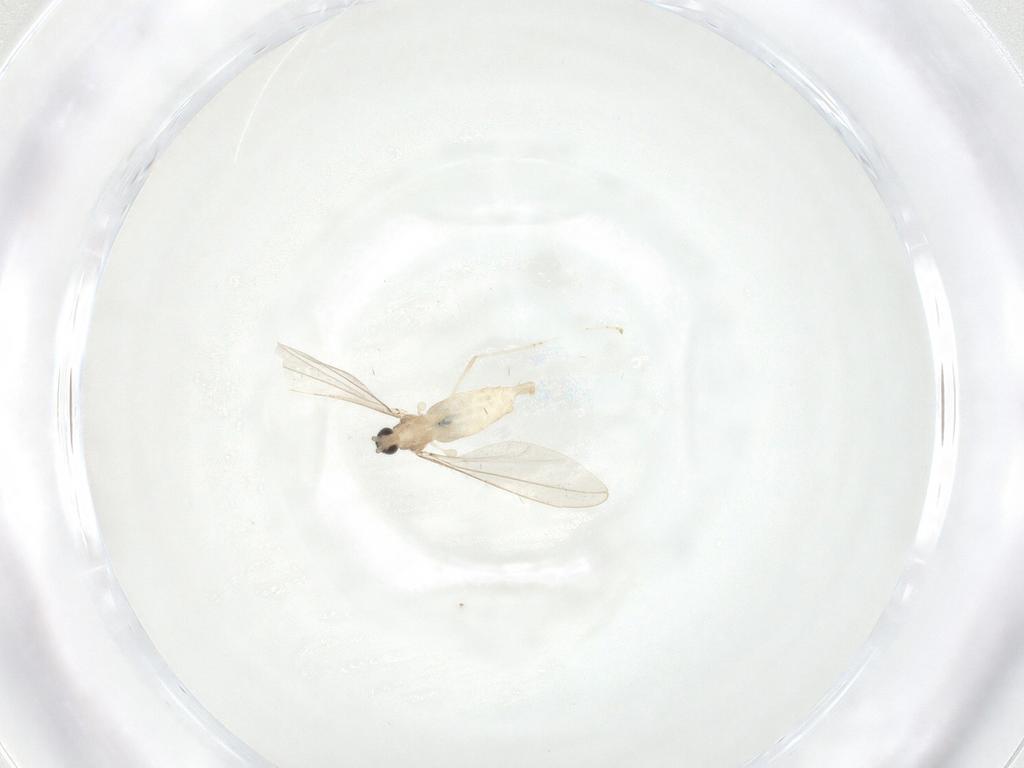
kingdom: Animalia
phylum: Arthropoda
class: Insecta
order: Diptera
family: Cecidomyiidae
